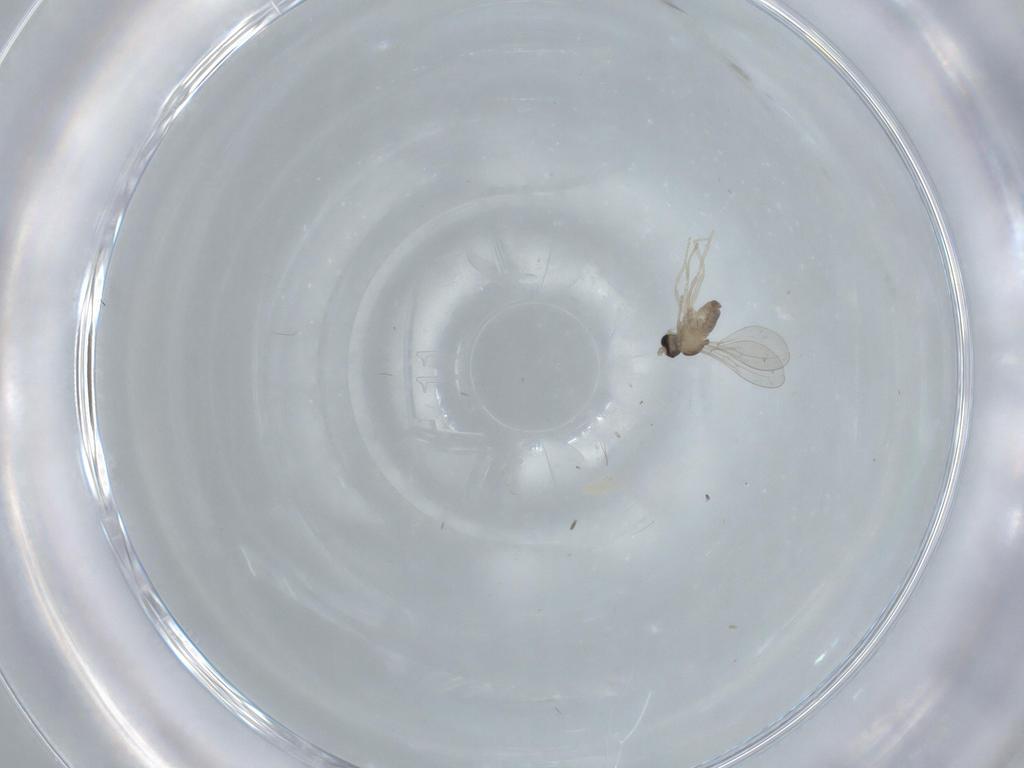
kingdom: Animalia
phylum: Arthropoda
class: Insecta
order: Diptera
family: Cecidomyiidae
